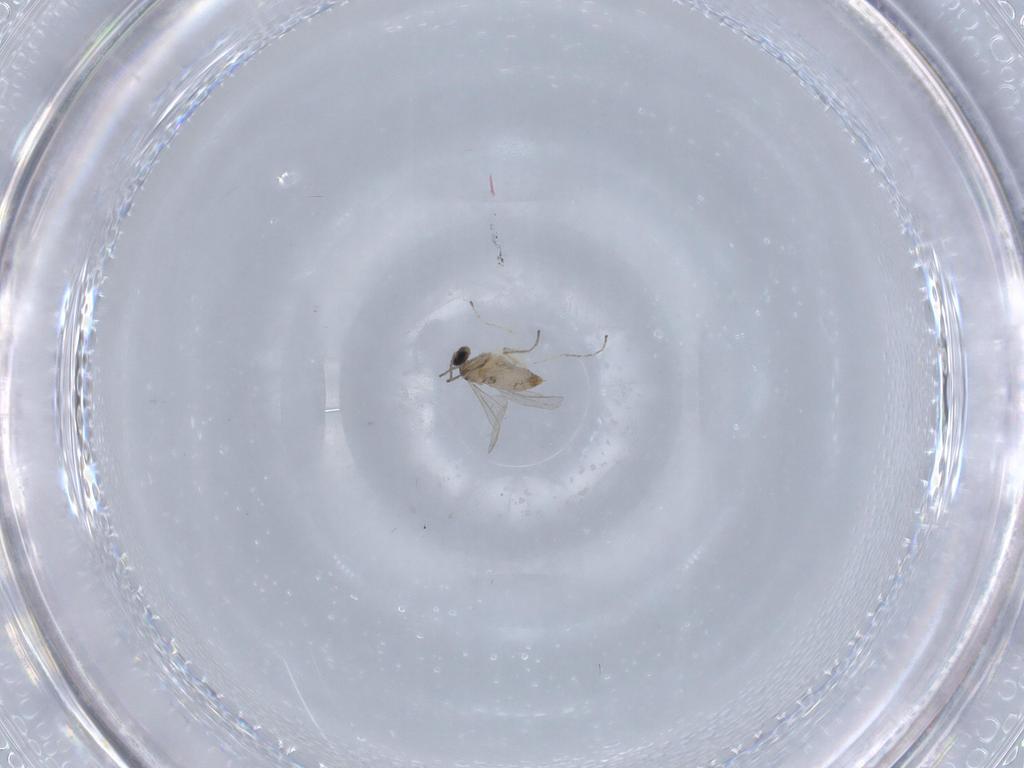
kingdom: Animalia
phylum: Arthropoda
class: Insecta
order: Diptera
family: Cecidomyiidae
